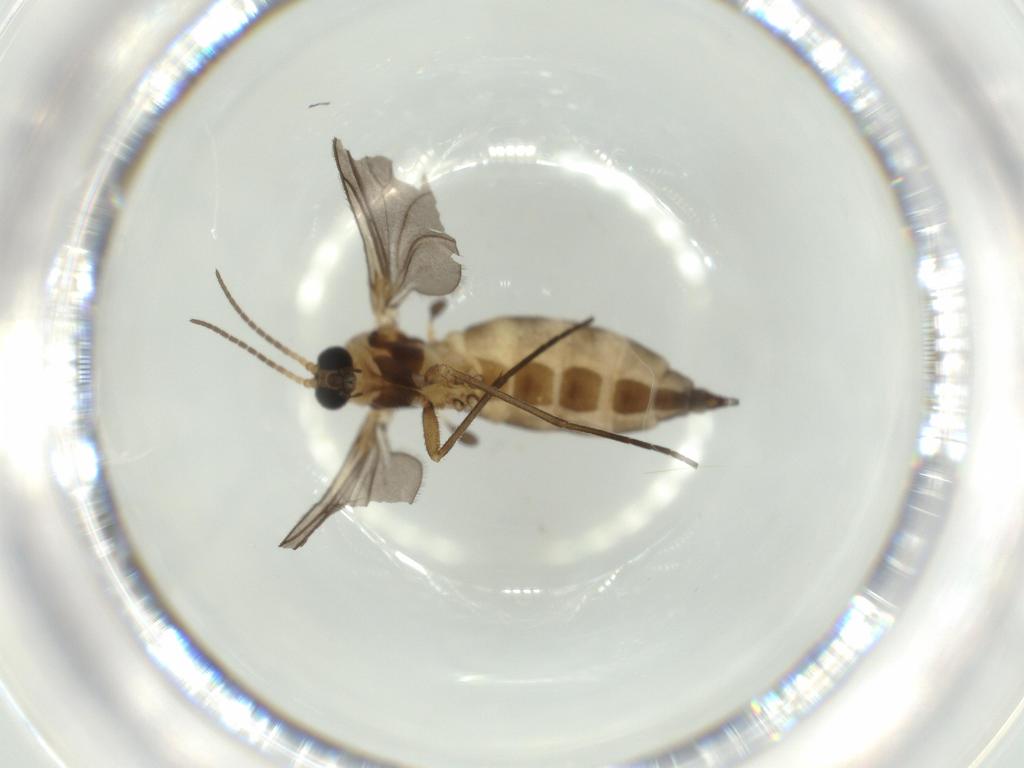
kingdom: Animalia
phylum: Arthropoda
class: Insecta
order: Diptera
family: Sciaridae
